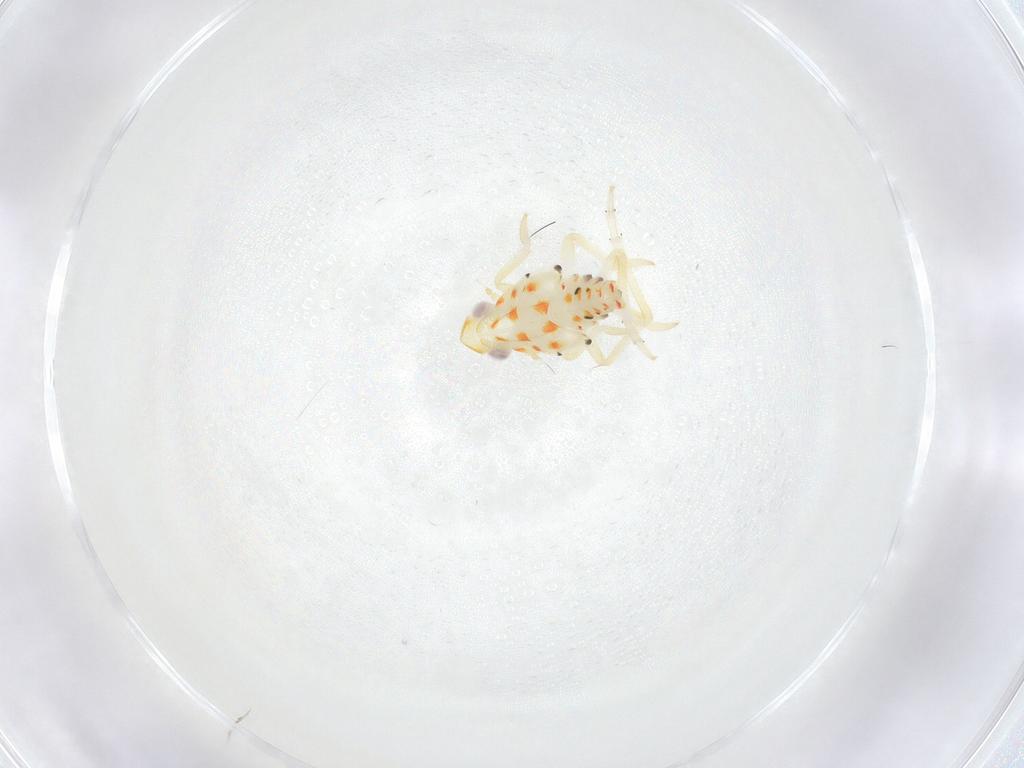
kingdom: Animalia
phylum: Arthropoda
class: Insecta
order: Hemiptera
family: Tropiduchidae
